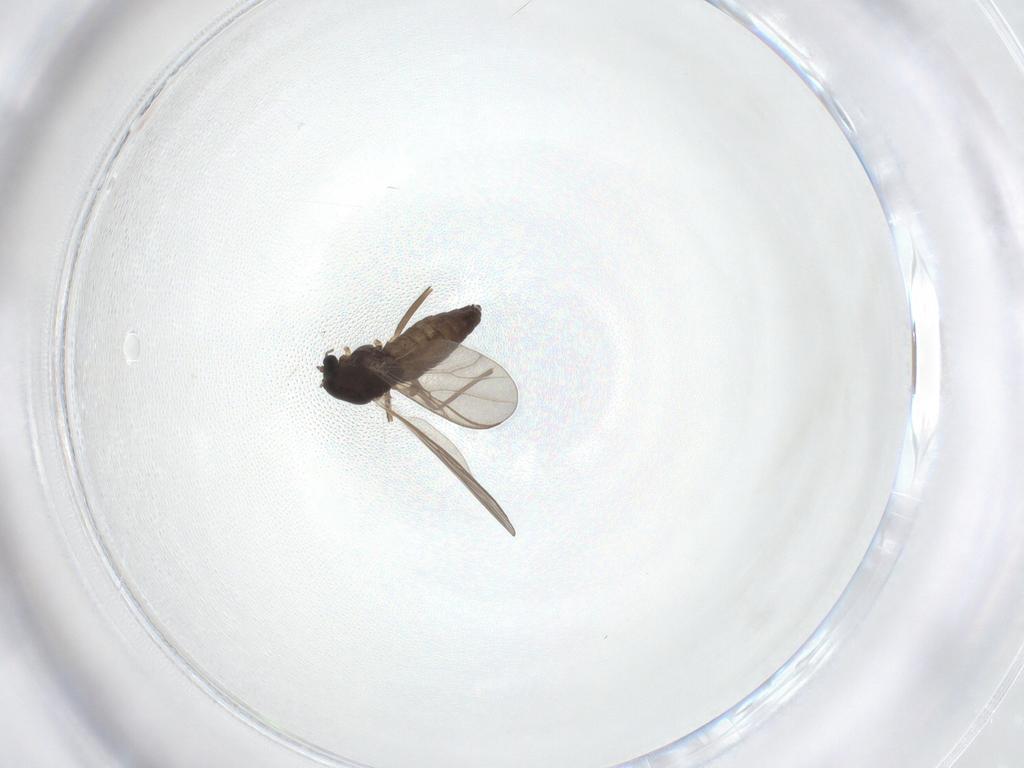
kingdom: Animalia
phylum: Arthropoda
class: Insecta
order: Diptera
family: Chironomidae
